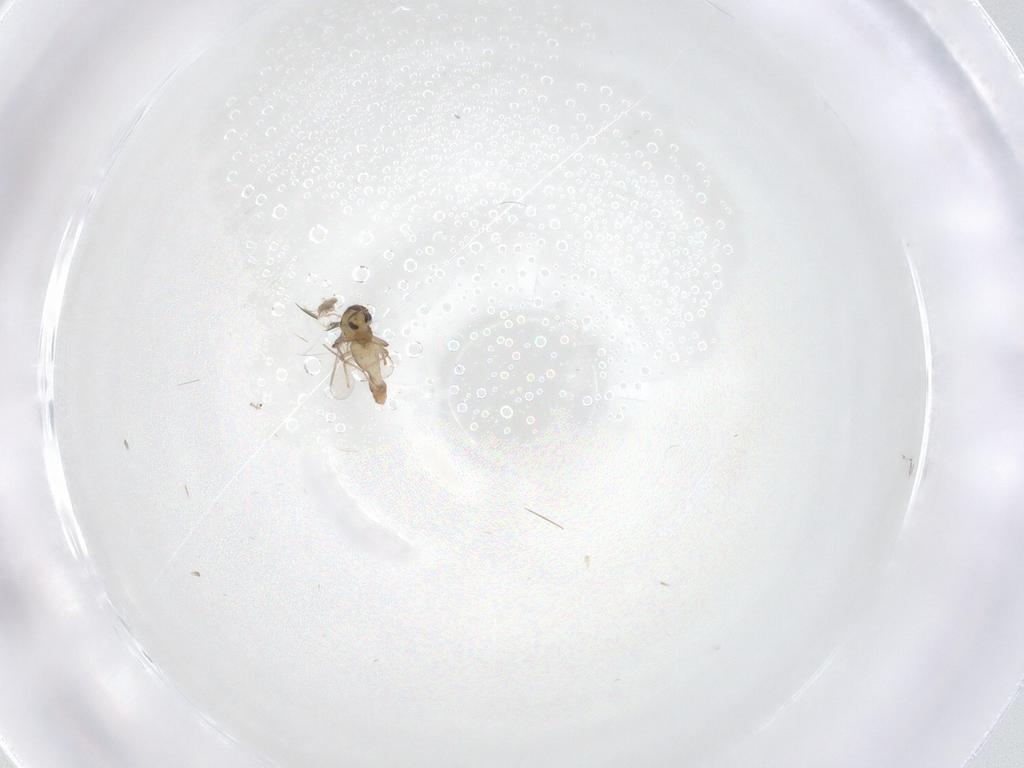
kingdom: Animalia
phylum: Arthropoda
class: Insecta
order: Diptera
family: Chironomidae
